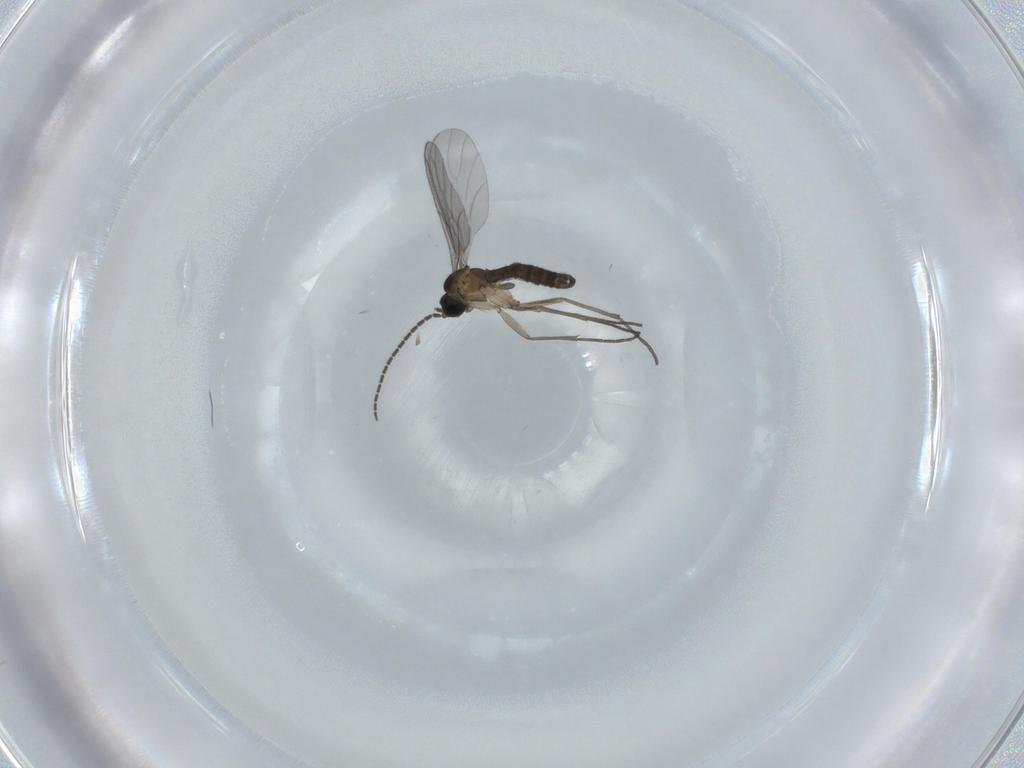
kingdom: Animalia
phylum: Arthropoda
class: Insecta
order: Diptera
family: Sciaridae
